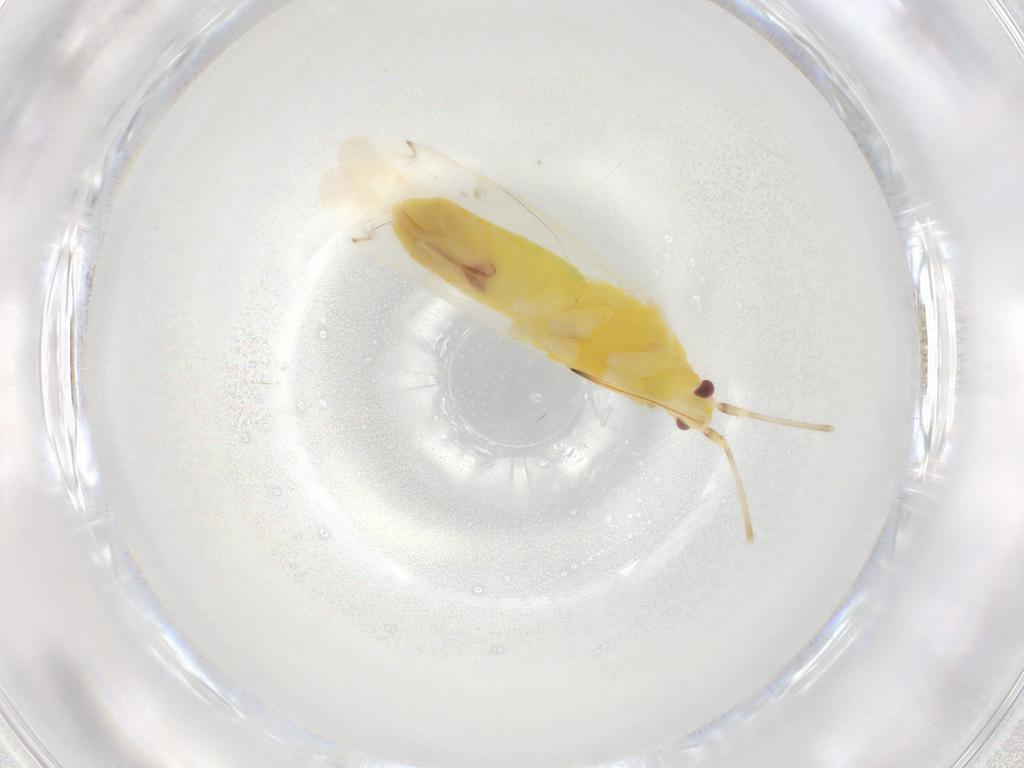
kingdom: Animalia
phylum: Arthropoda
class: Insecta
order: Hemiptera
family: Miridae
